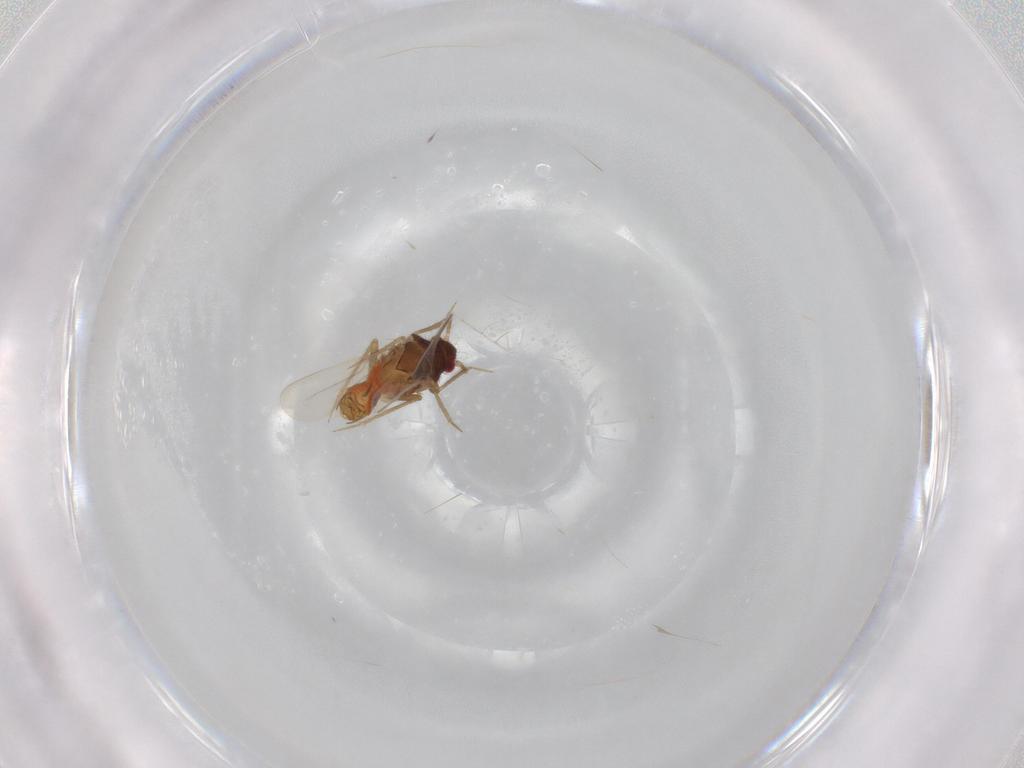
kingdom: Animalia
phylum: Arthropoda
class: Insecta
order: Hemiptera
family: Ceratocombidae
